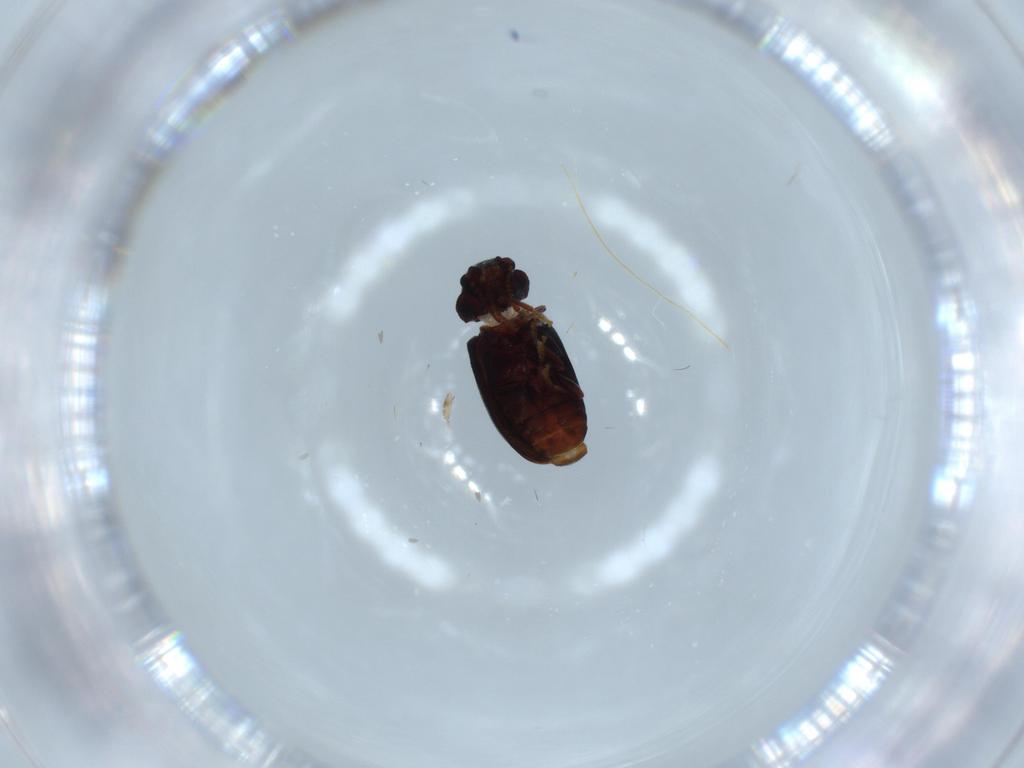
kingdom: Animalia
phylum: Arthropoda
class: Insecta
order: Coleoptera
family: Ptinidae
